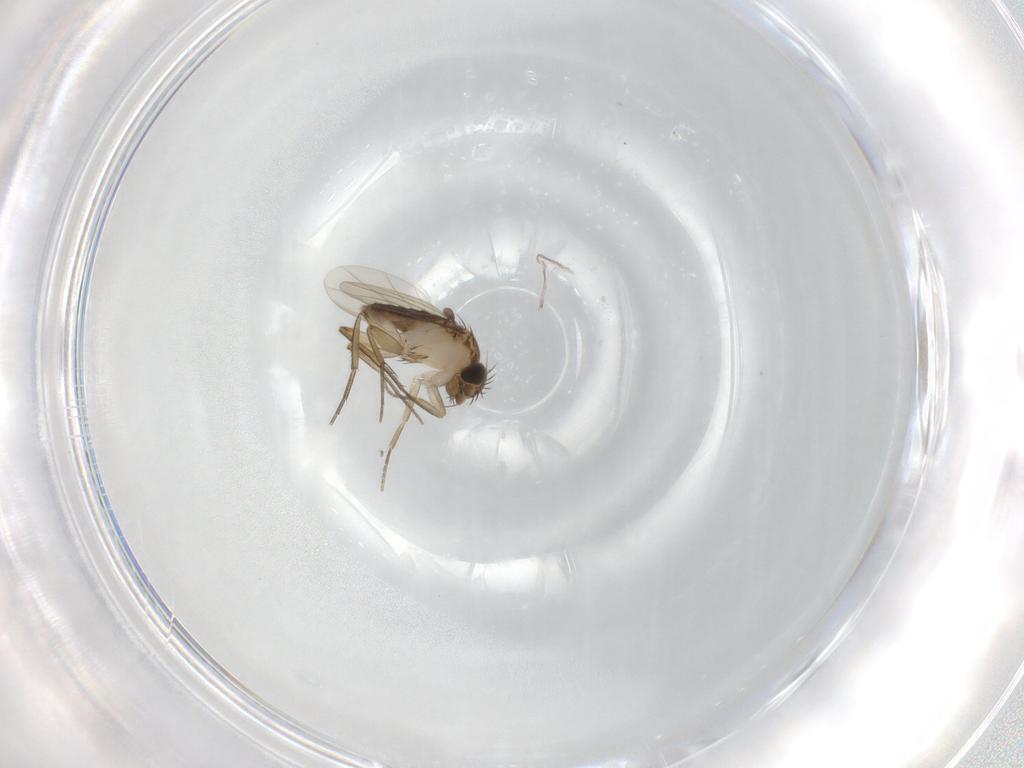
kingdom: Animalia
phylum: Arthropoda
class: Insecta
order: Diptera
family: Phoridae
